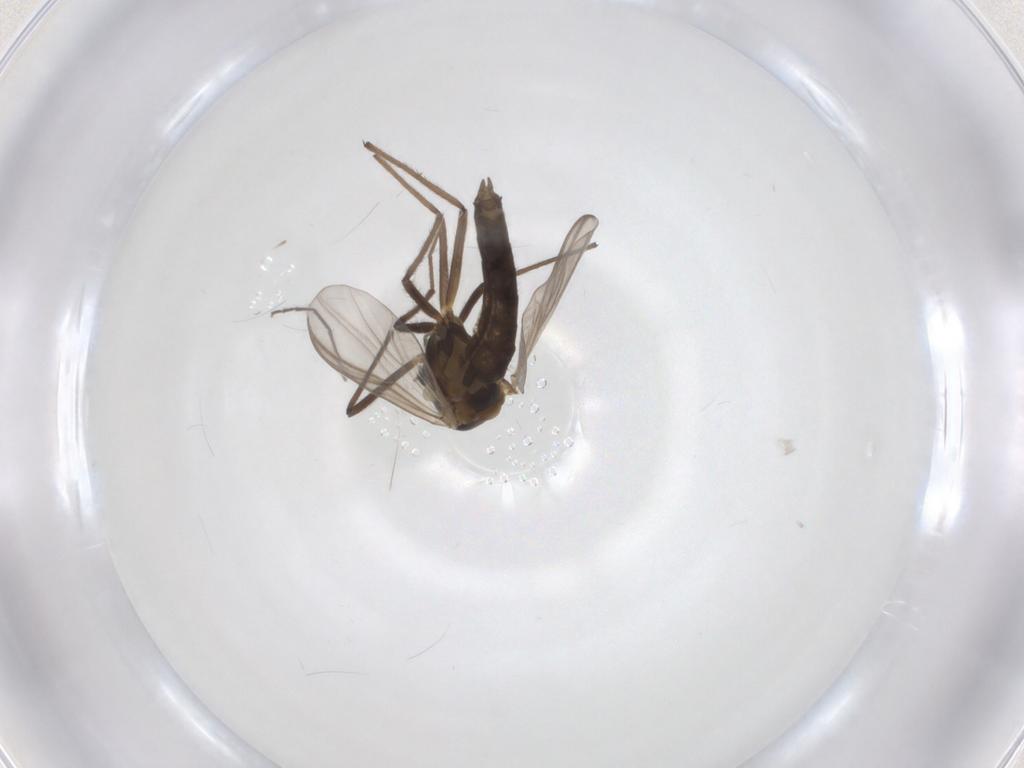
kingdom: Animalia
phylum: Arthropoda
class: Insecta
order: Diptera
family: Chironomidae
